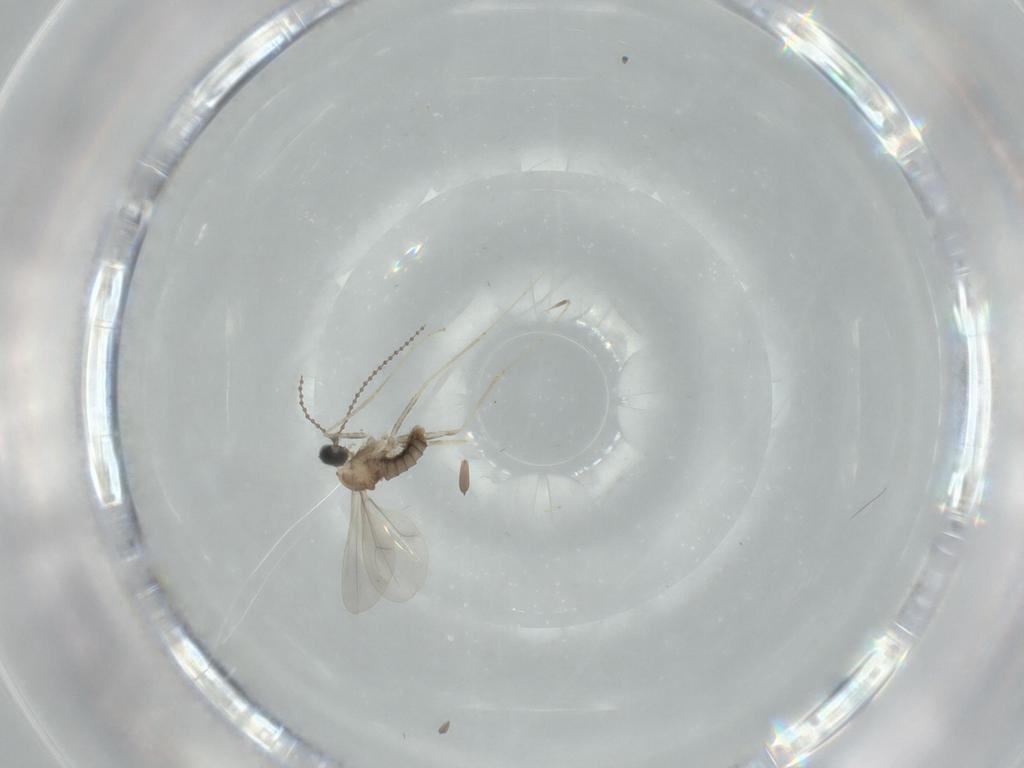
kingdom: Animalia
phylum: Arthropoda
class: Insecta
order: Diptera
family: Cecidomyiidae
